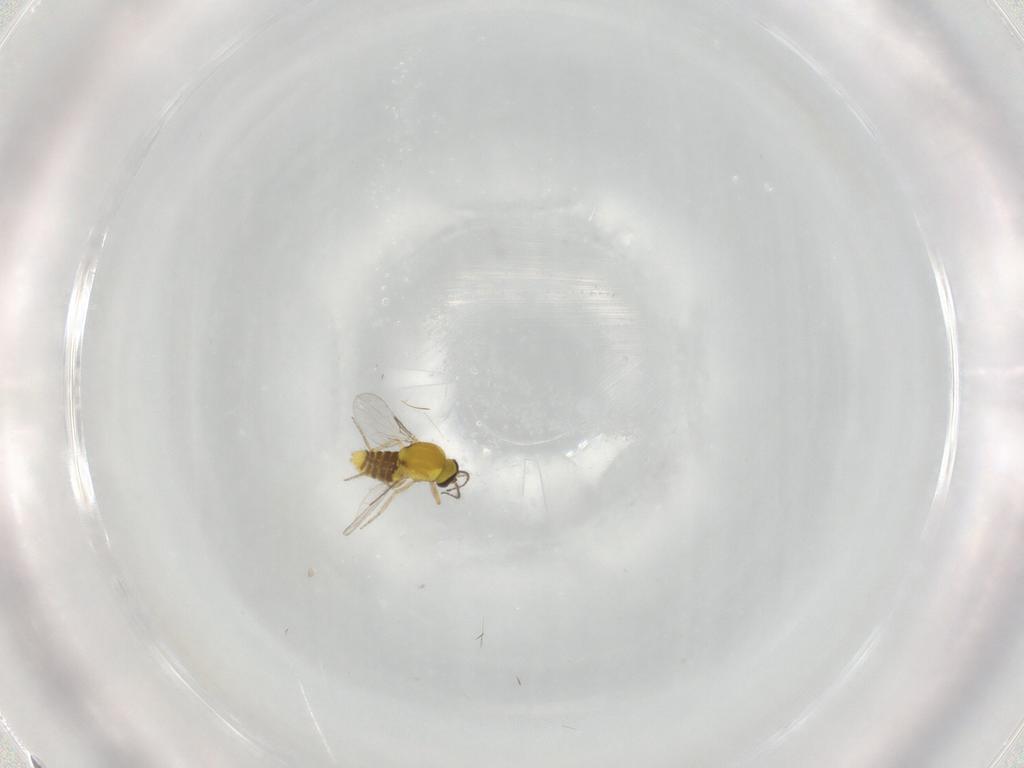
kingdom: Animalia
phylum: Arthropoda
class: Insecta
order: Diptera
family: Ceratopogonidae
